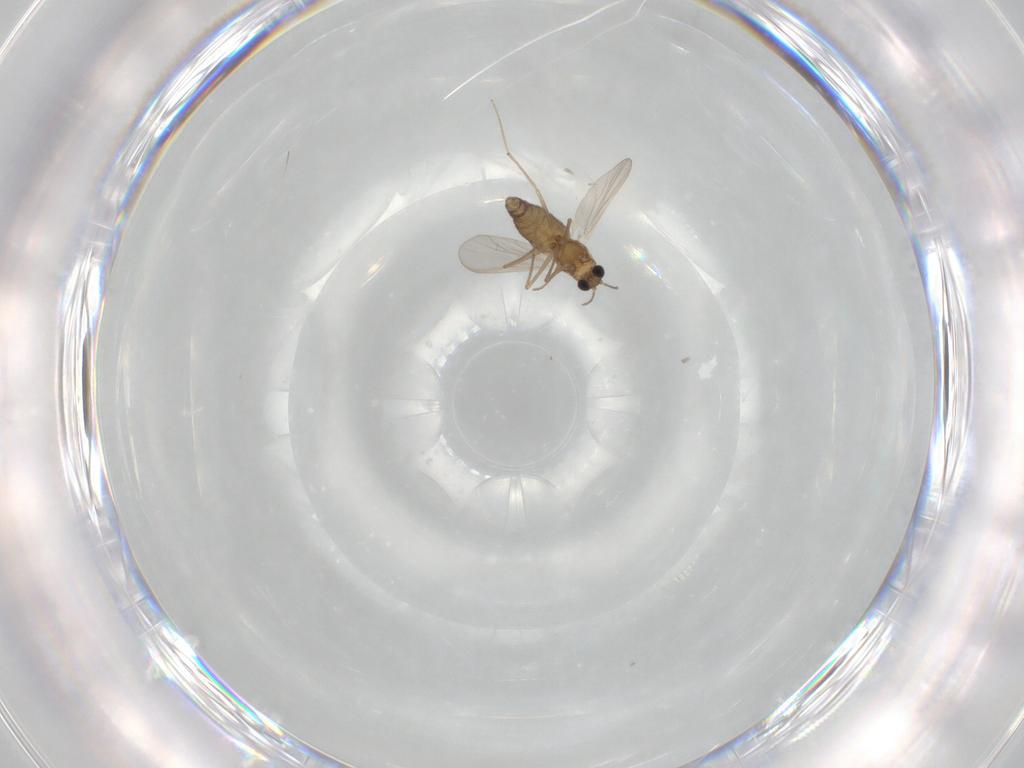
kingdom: Animalia
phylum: Arthropoda
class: Insecta
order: Diptera
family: Chironomidae
